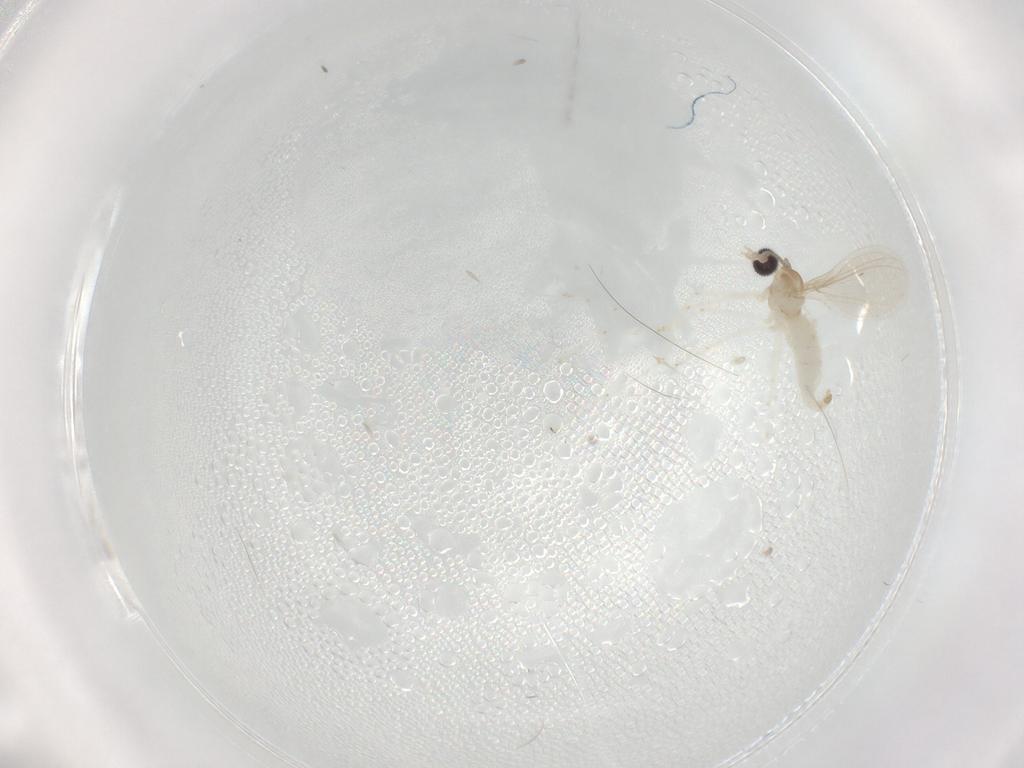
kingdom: Animalia
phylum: Arthropoda
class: Insecta
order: Diptera
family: Cecidomyiidae
